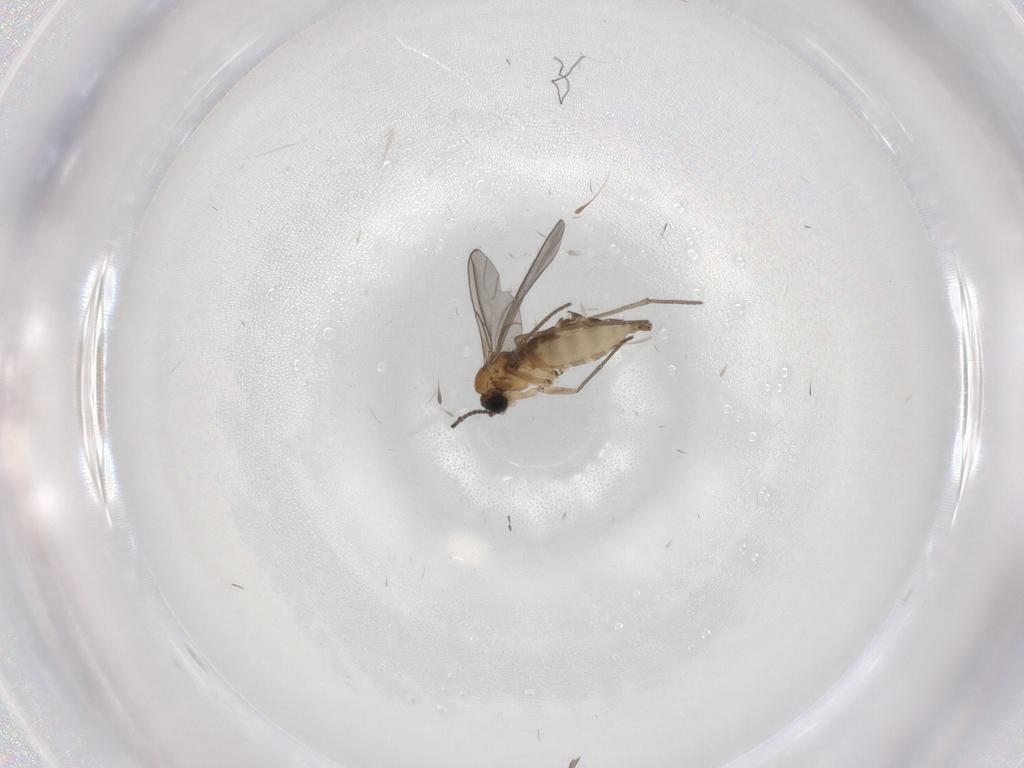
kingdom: Animalia
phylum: Arthropoda
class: Insecta
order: Diptera
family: Sciaridae
